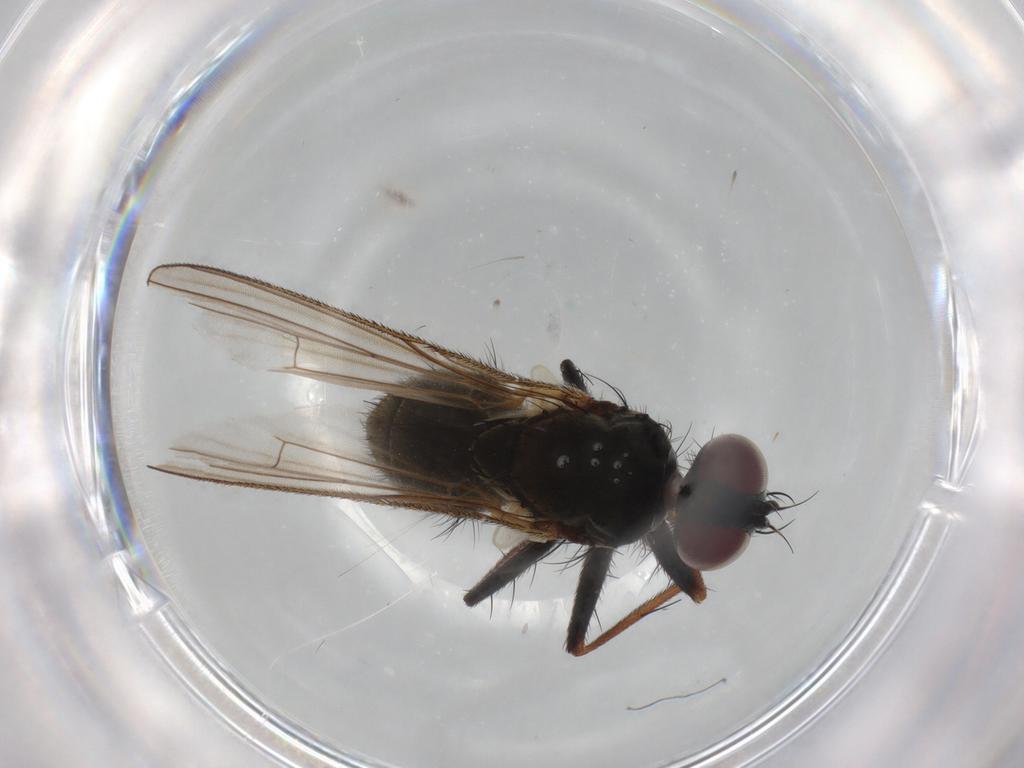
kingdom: Animalia
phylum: Arthropoda
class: Insecta
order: Diptera
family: Muscidae
